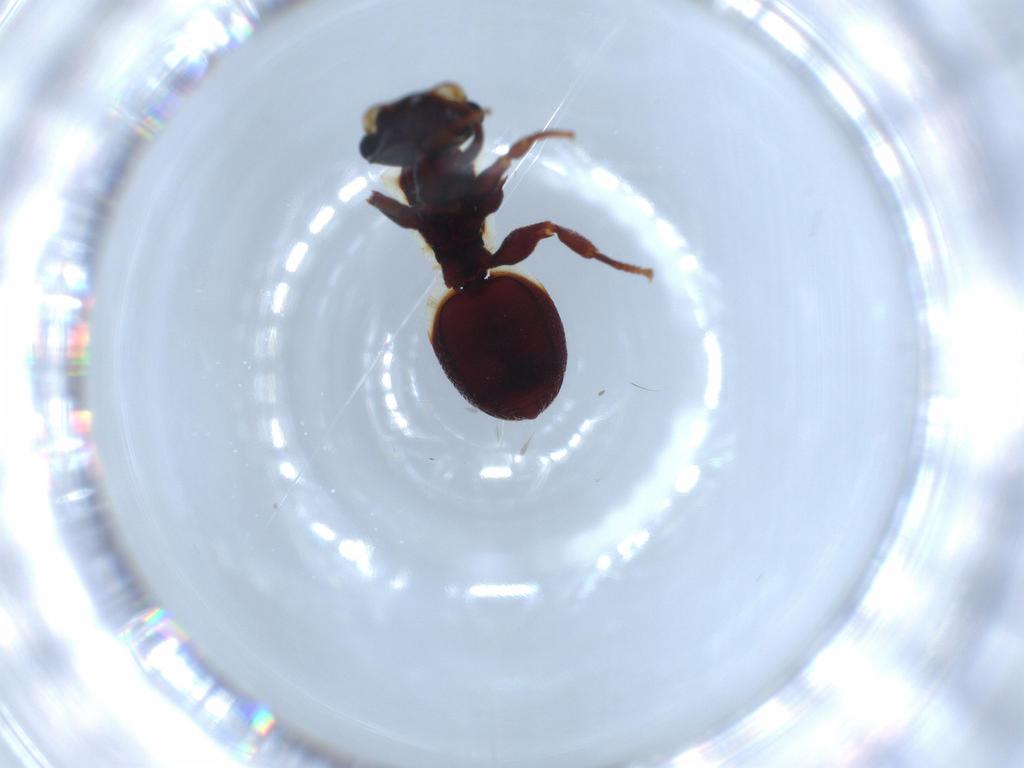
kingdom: Animalia
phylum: Arthropoda
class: Insecta
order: Hymenoptera
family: Formicidae
